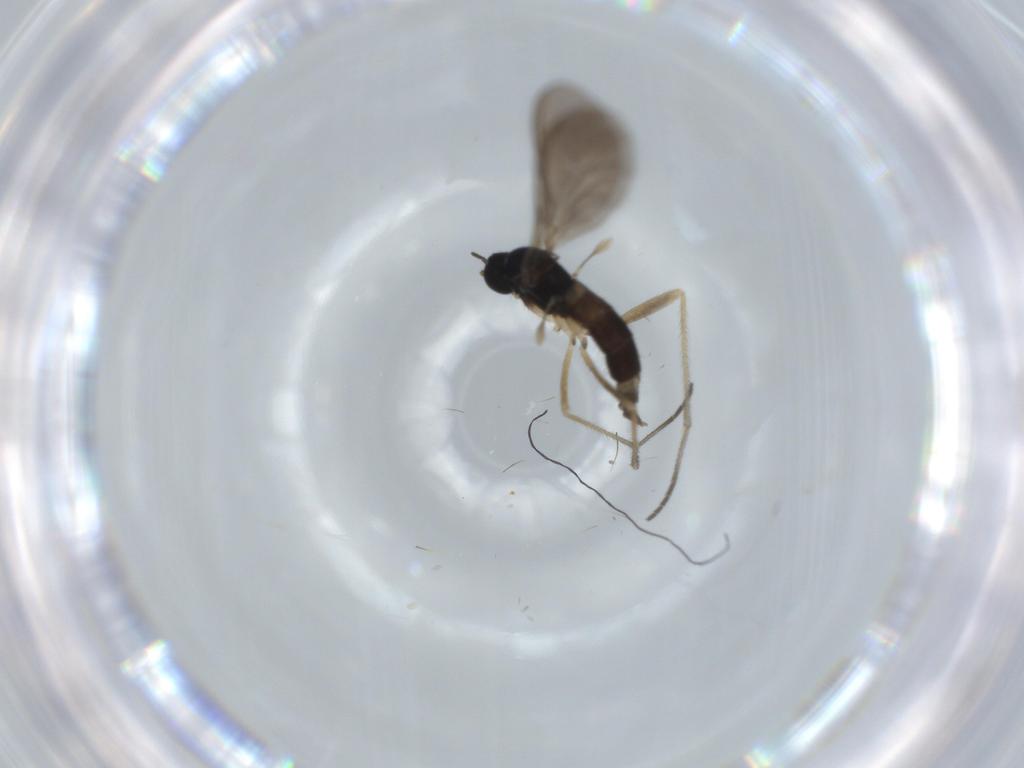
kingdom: Animalia
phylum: Arthropoda
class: Insecta
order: Diptera
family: Sciaridae
